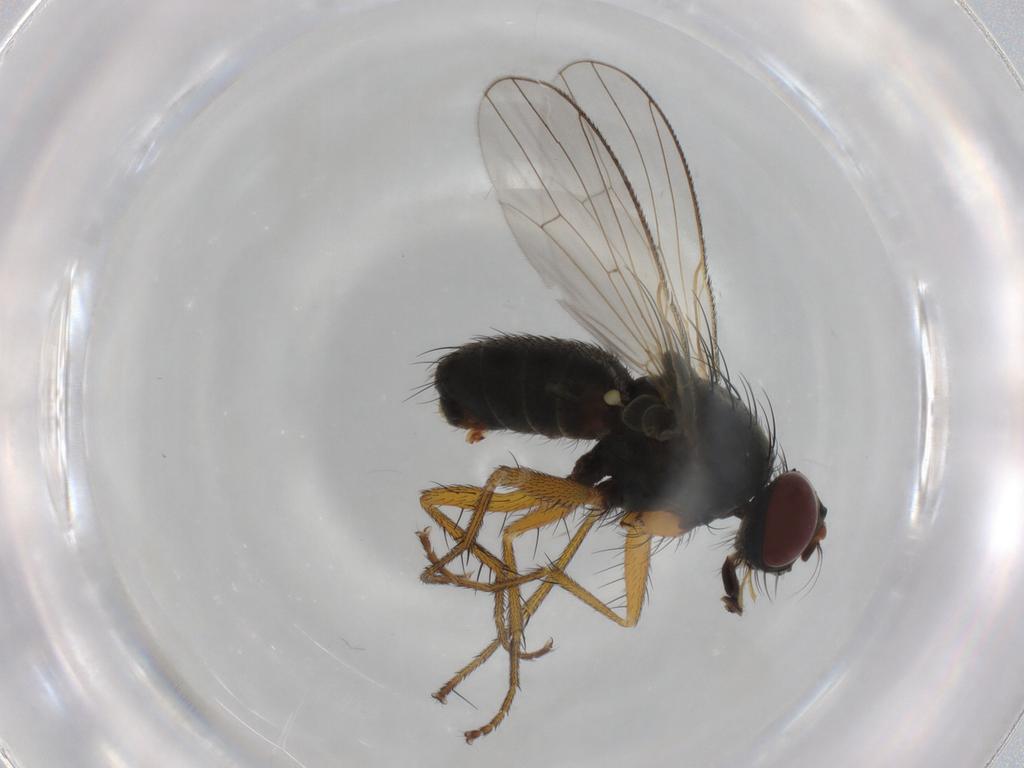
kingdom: Animalia
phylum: Arthropoda
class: Insecta
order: Diptera
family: Muscidae
